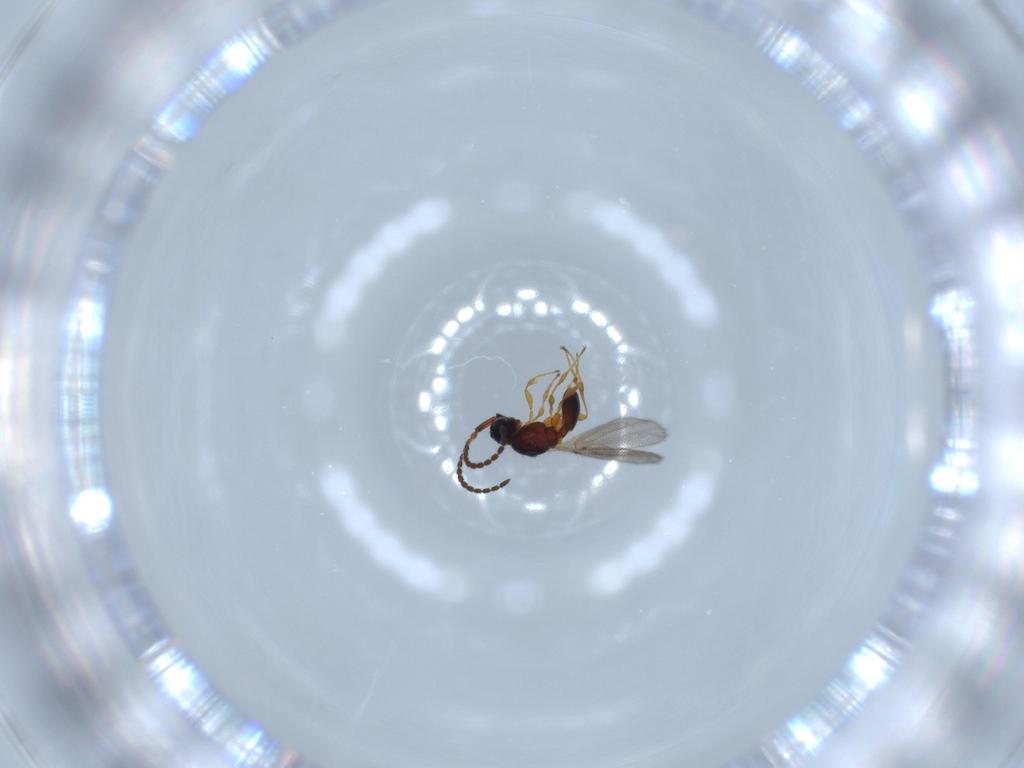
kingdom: Animalia
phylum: Arthropoda
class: Insecta
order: Hymenoptera
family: Diapriidae
